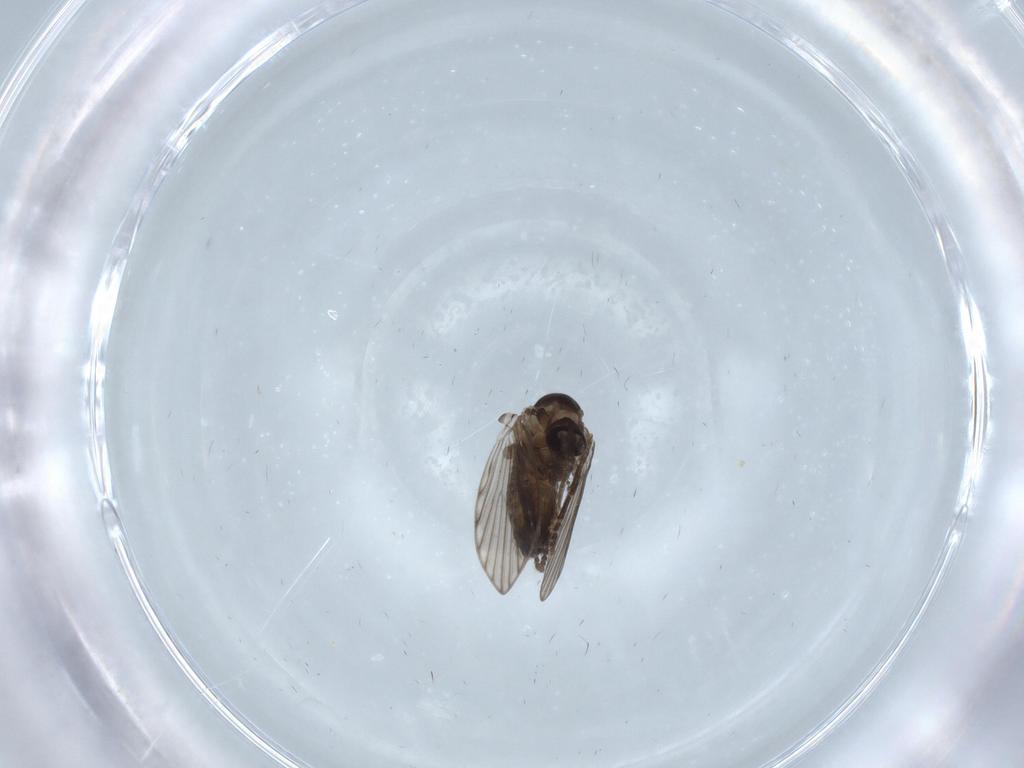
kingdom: Animalia
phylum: Arthropoda
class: Insecta
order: Diptera
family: Psychodidae
